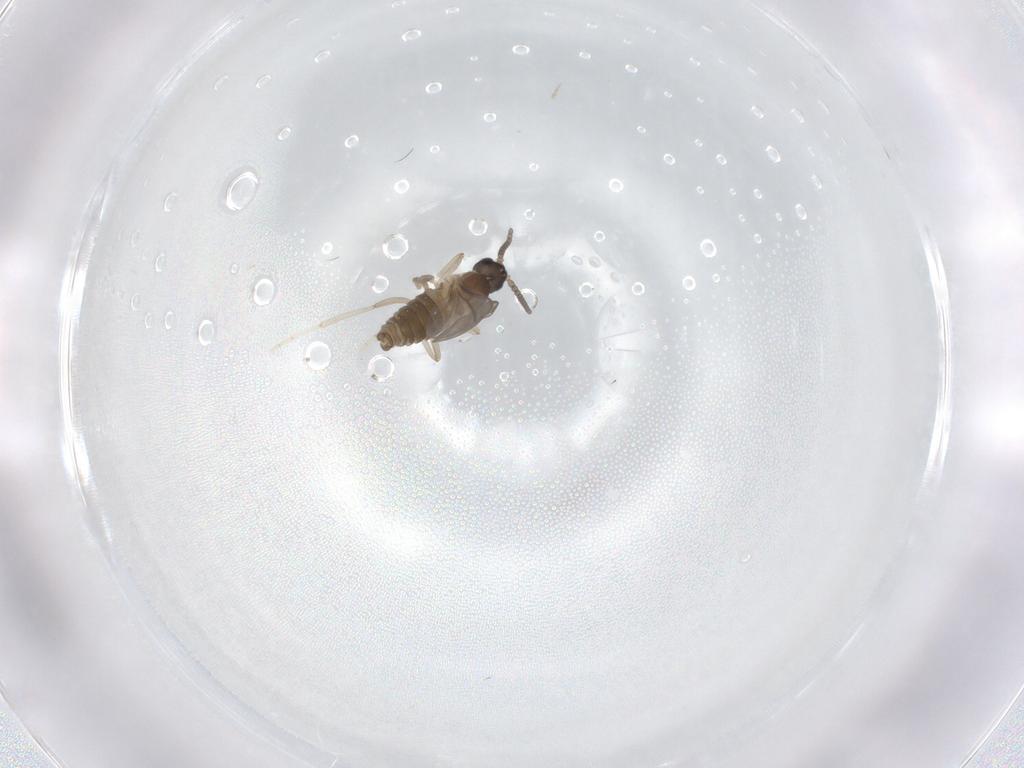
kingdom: Animalia
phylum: Arthropoda
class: Insecta
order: Diptera
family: Cecidomyiidae
